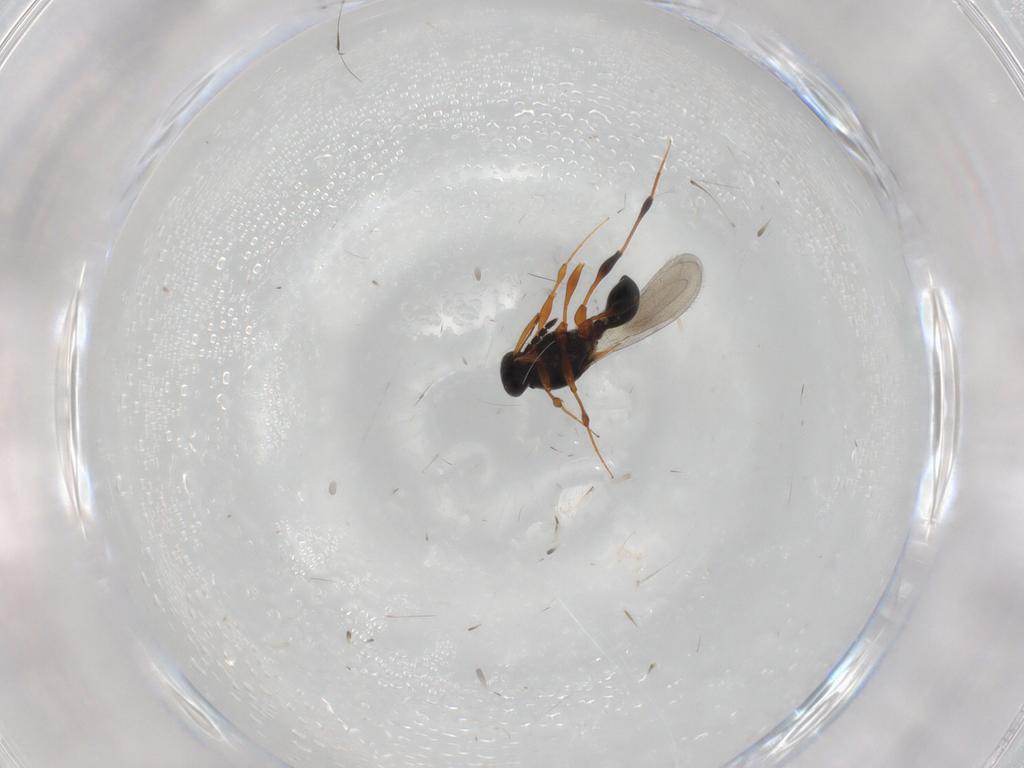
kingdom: Animalia
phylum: Arthropoda
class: Insecta
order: Hymenoptera
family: Platygastridae
